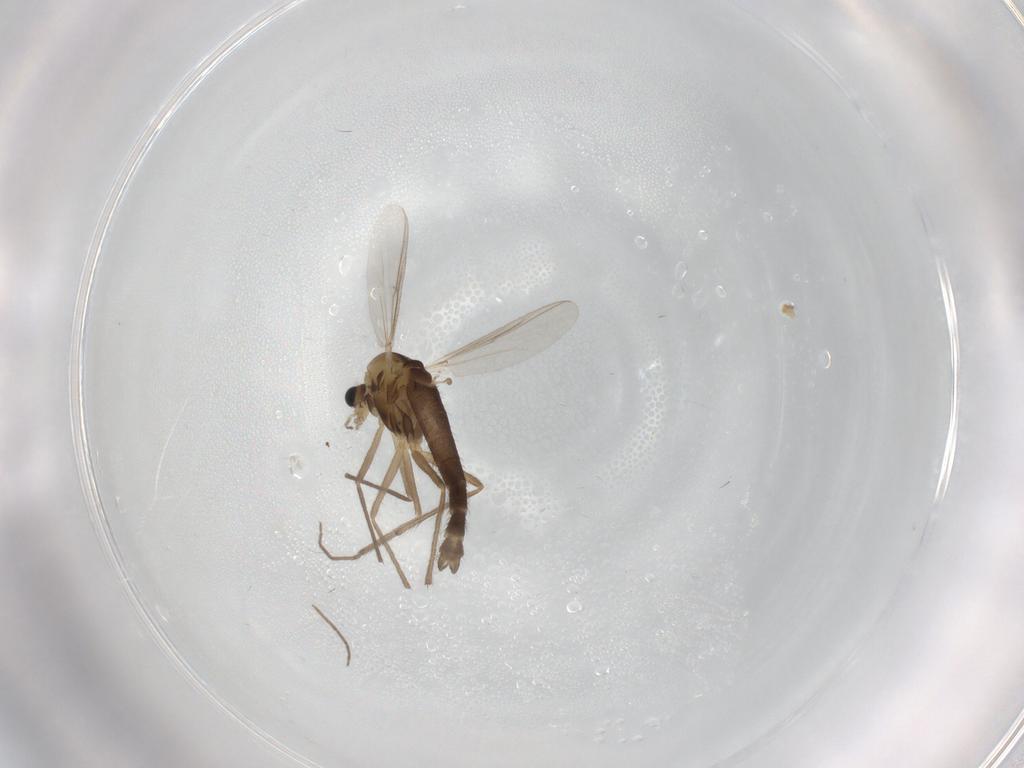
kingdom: Animalia
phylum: Arthropoda
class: Insecta
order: Diptera
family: Chironomidae
